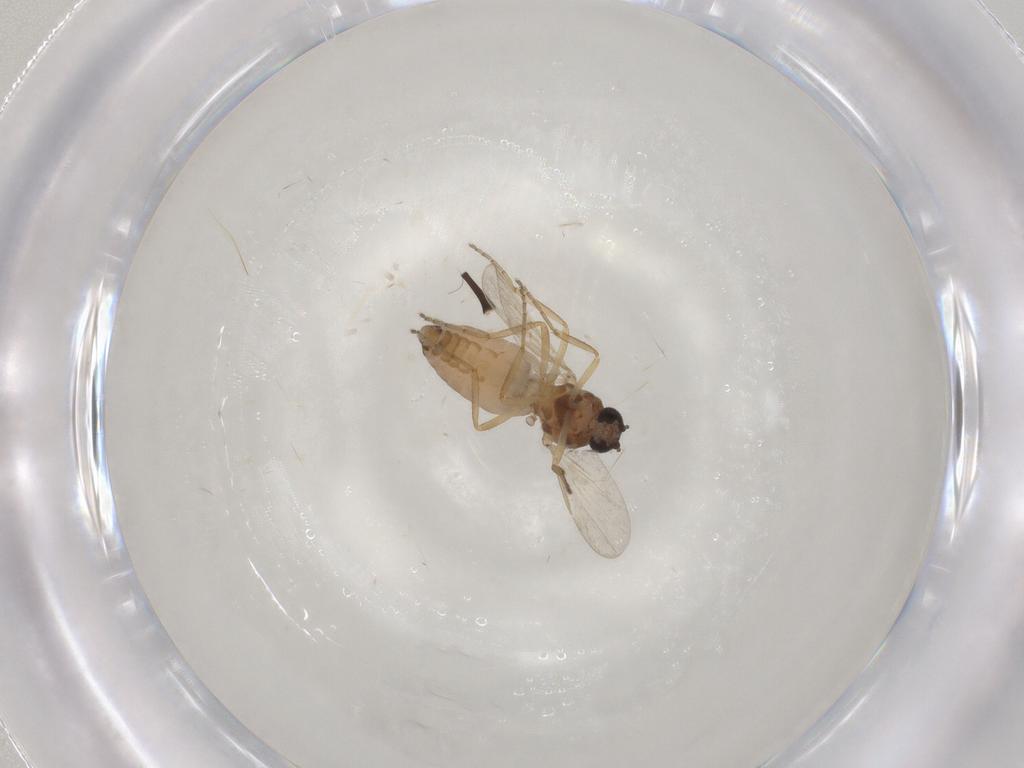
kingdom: Animalia
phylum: Arthropoda
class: Insecta
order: Diptera
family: Ceratopogonidae
